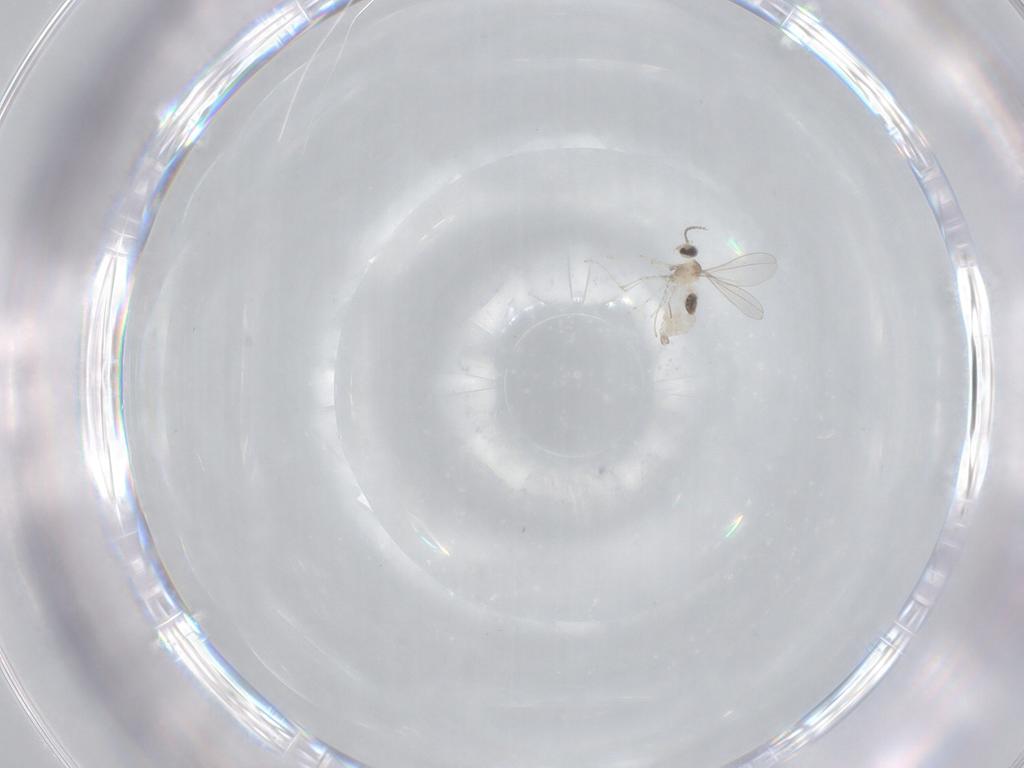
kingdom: Animalia
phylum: Arthropoda
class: Insecta
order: Diptera
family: Cecidomyiidae
